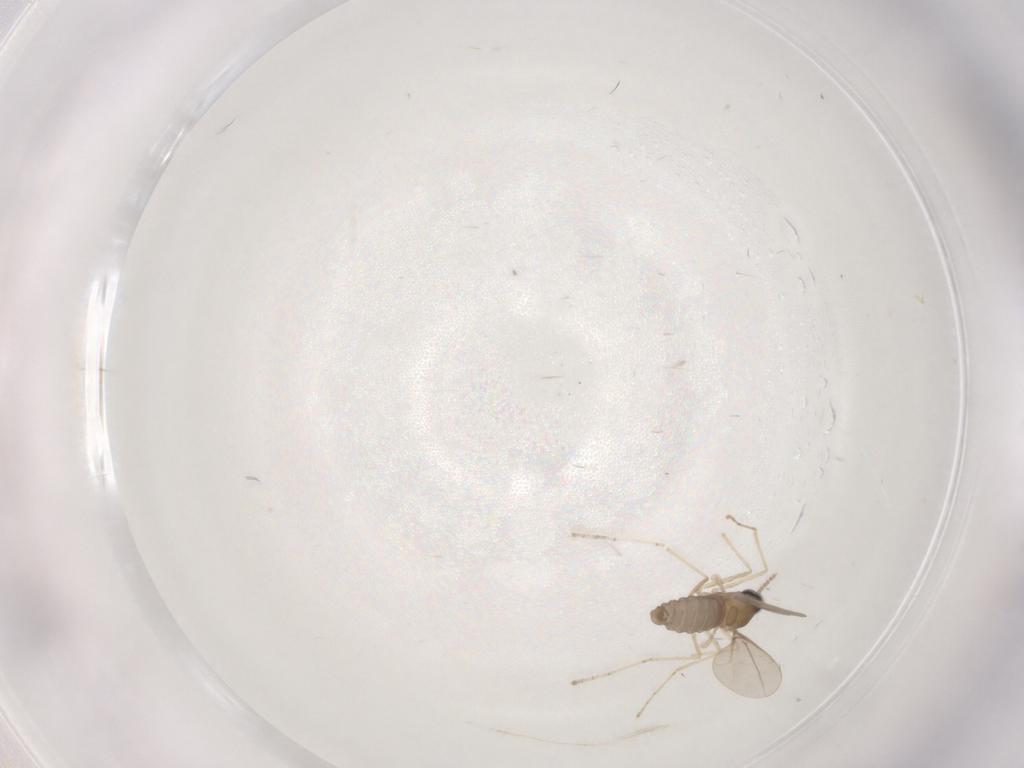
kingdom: Animalia
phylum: Arthropoda
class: Insecta
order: Diptera
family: Cecidomyiidae
